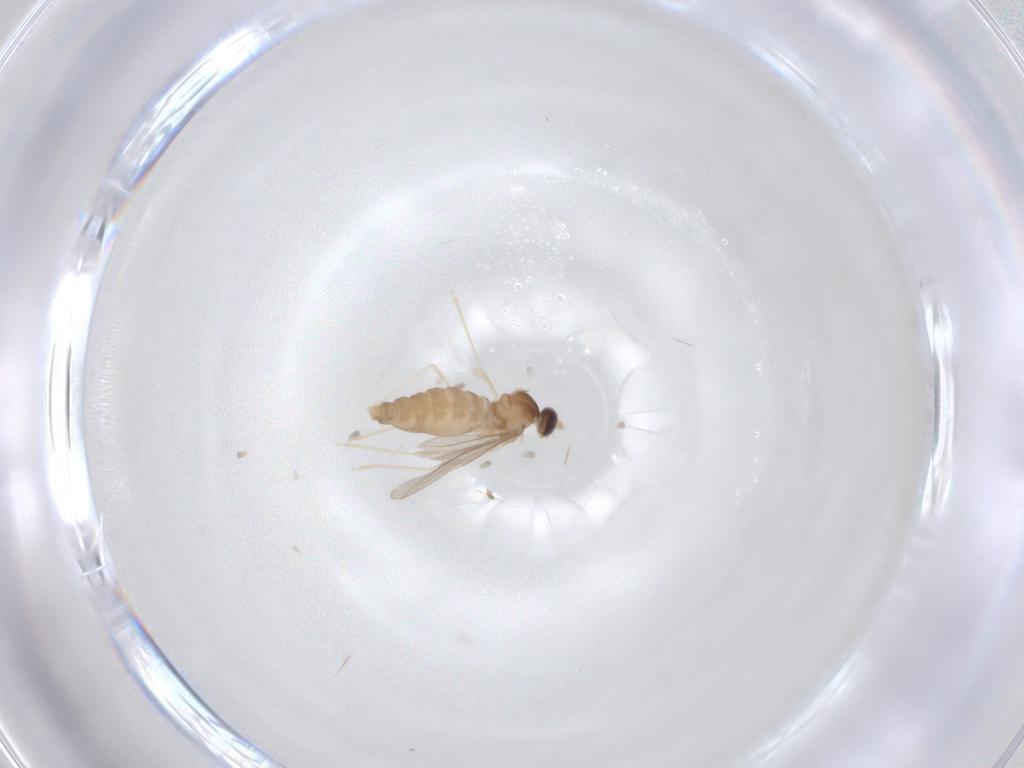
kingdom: Animalia
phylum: Arthropoda
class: Insecta
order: Diptera
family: Cecidomyiidae
